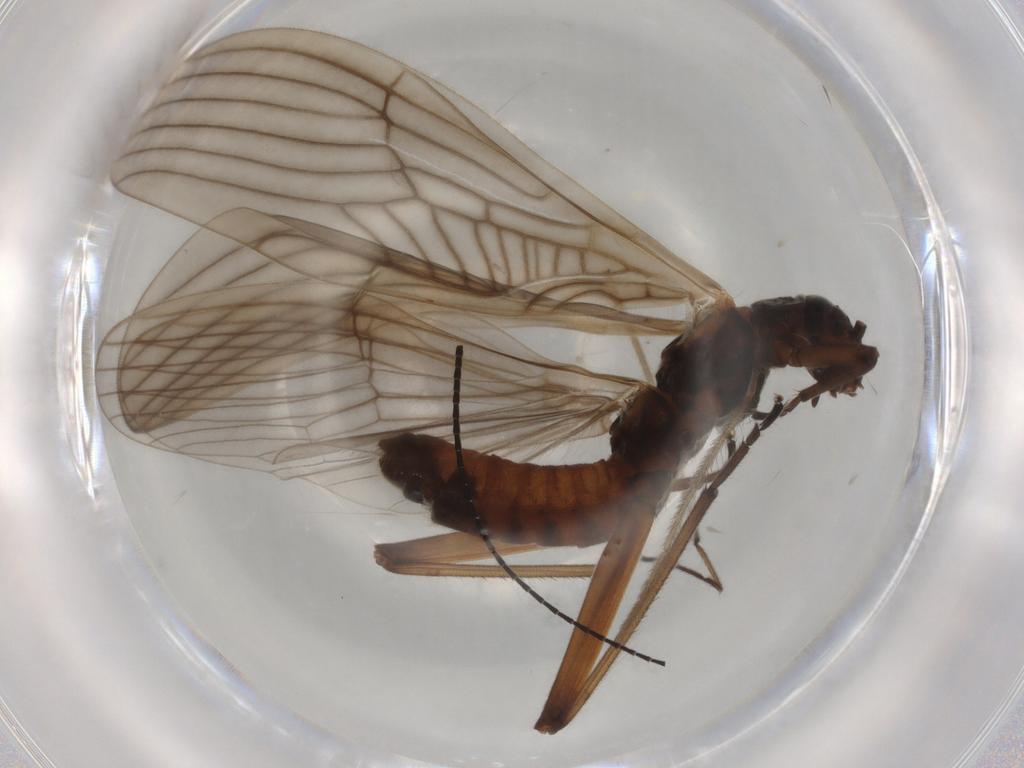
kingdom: Animalia
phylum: Arthropoda
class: Insecta
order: Plecoptera
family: Notonemouridae
